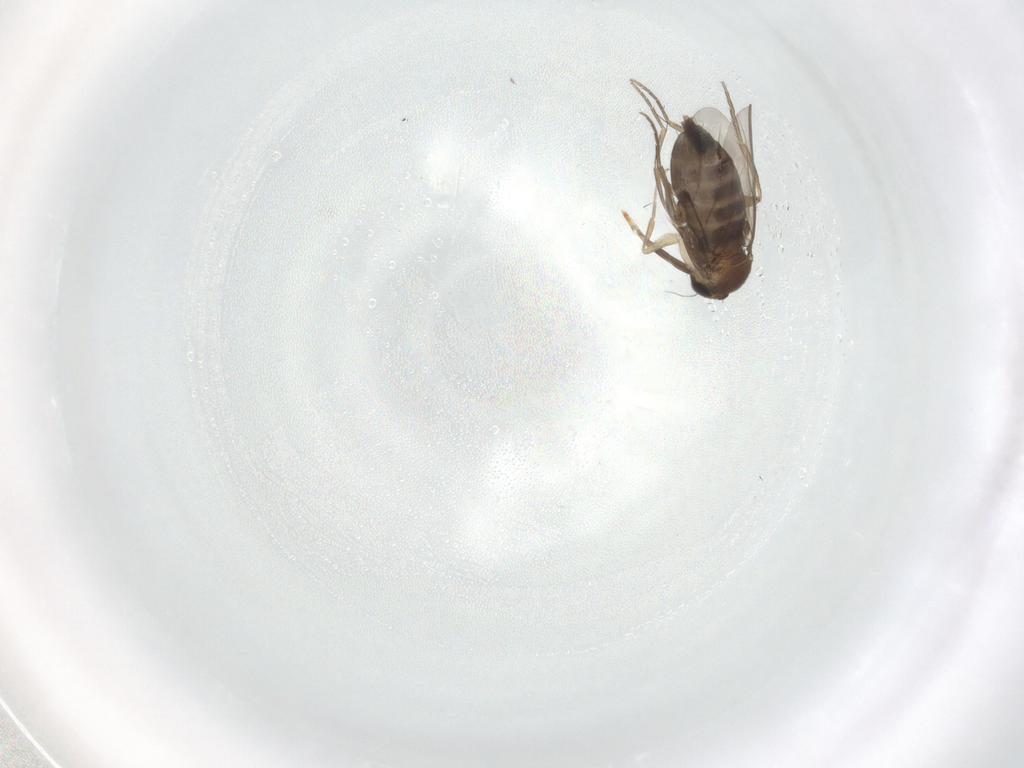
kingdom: Animalia
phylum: Arthropoda
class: Insecta
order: Diptera
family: Phoridae
